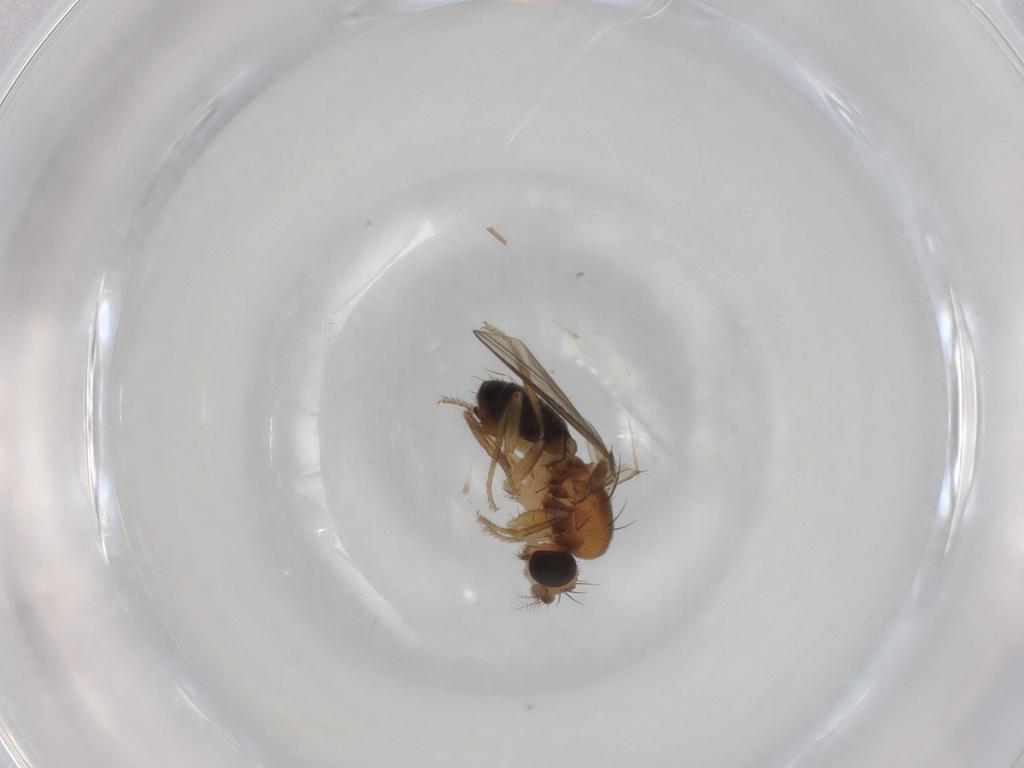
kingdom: Animalia
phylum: Arthropoda
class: Insecta
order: Diptera
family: Drosophilidae
